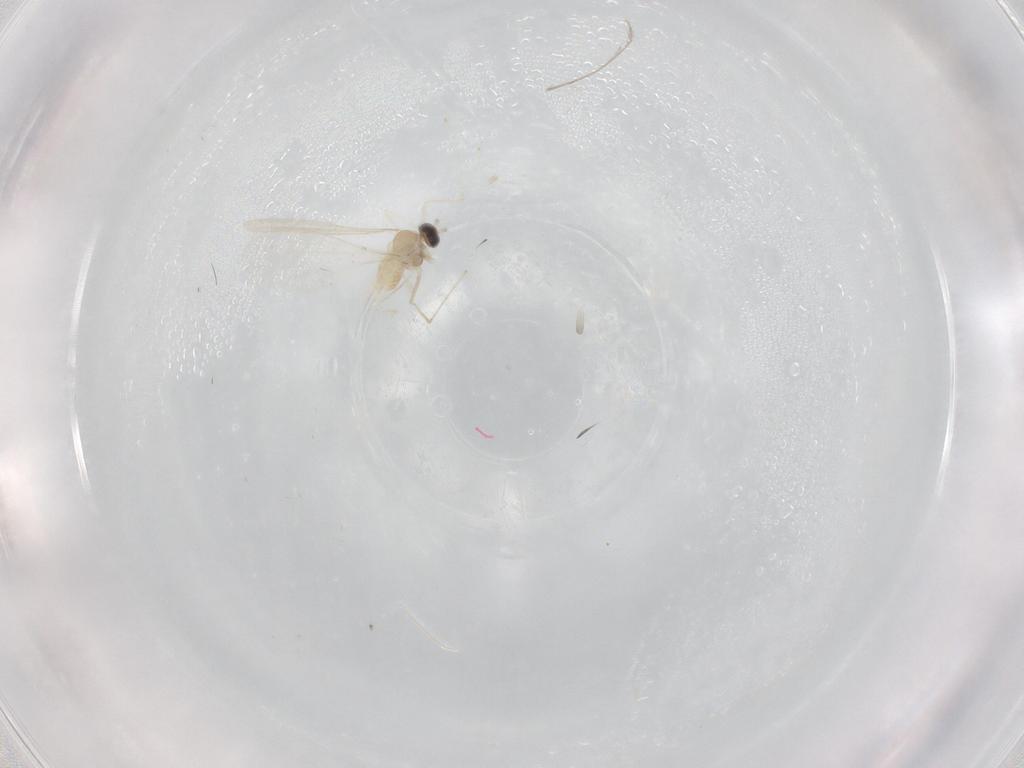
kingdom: Animalia
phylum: Arthropoda
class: Insecta
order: Diptera
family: Cecidomyiidae
